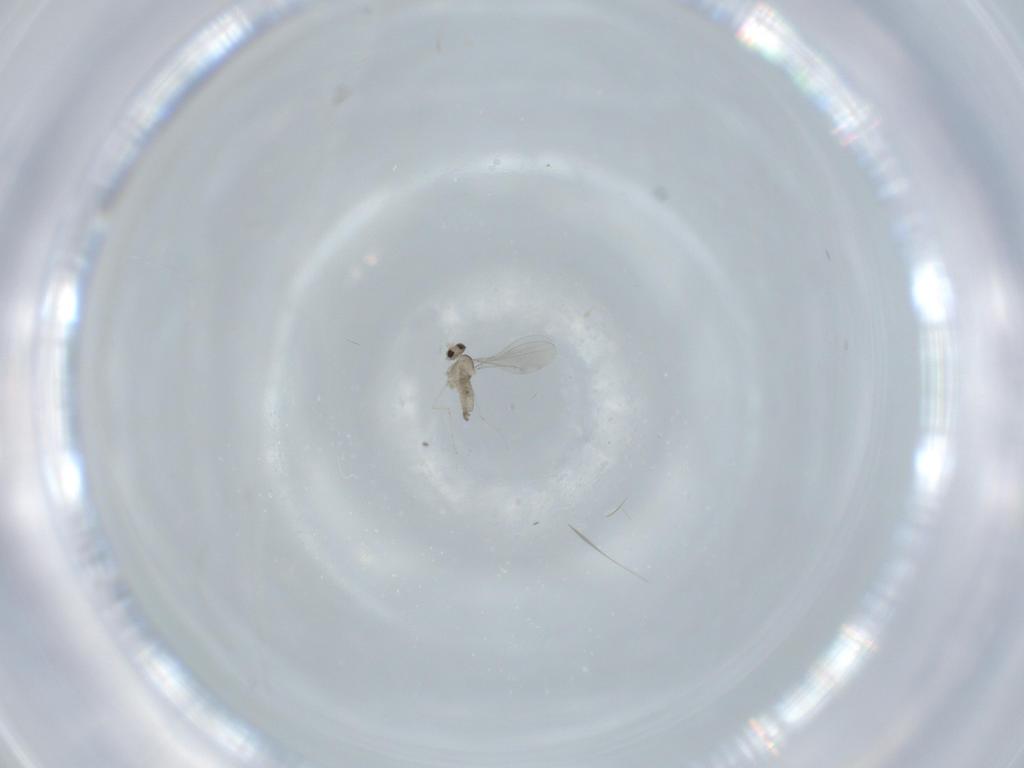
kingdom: Animalia
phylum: Arthropoda
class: Insecta
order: Diptera
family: Cecidomyiidae
